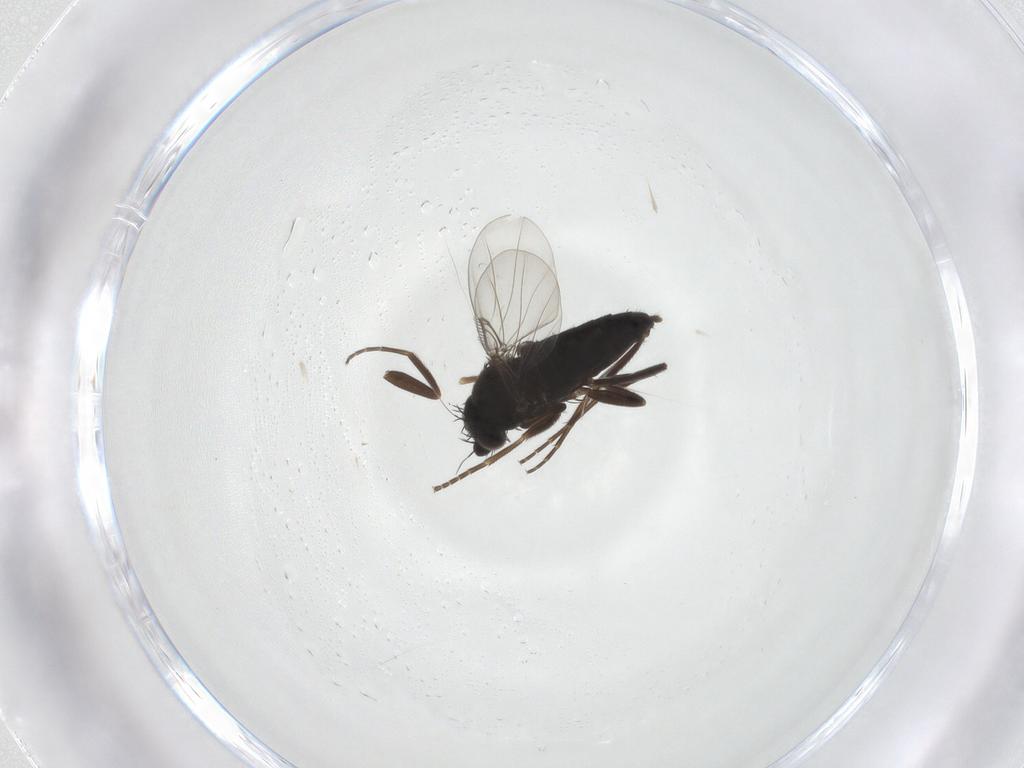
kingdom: Animalia
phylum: Arthropoda
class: Insecta
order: Diptera
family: Phoridae
